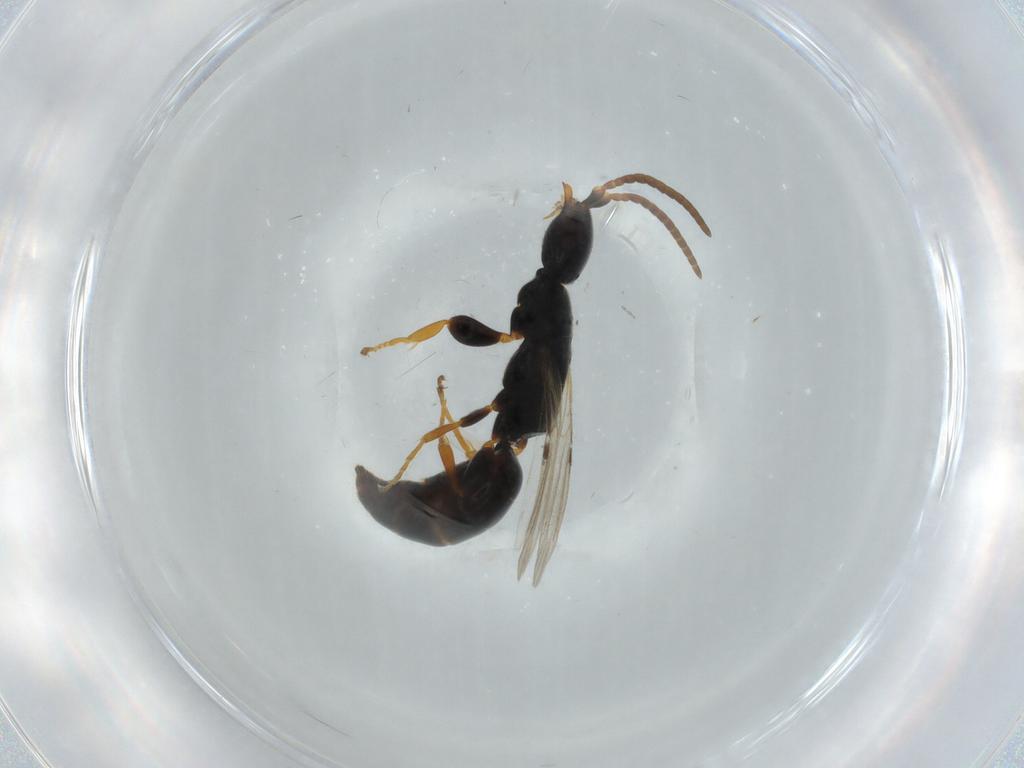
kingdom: Animalia
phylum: Arthropoda
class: Insecta
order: Hymenoptera
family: Bethylidae
